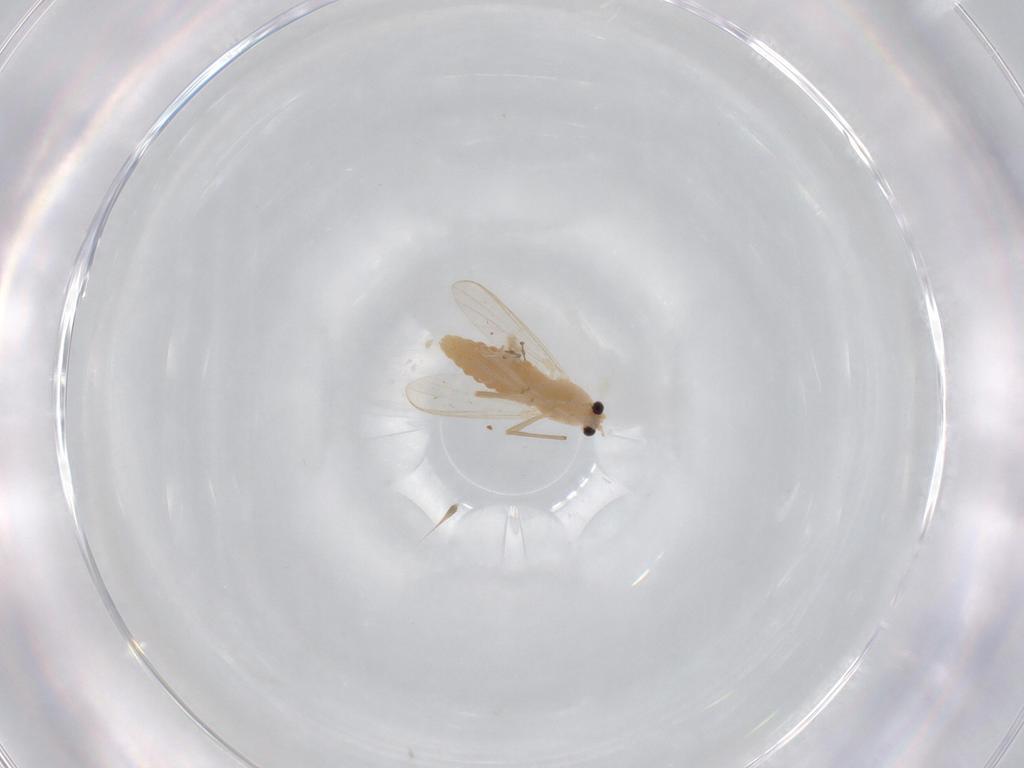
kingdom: Animalia
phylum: Arthropoda
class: Insecta
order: Diptera
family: Chironomidae
